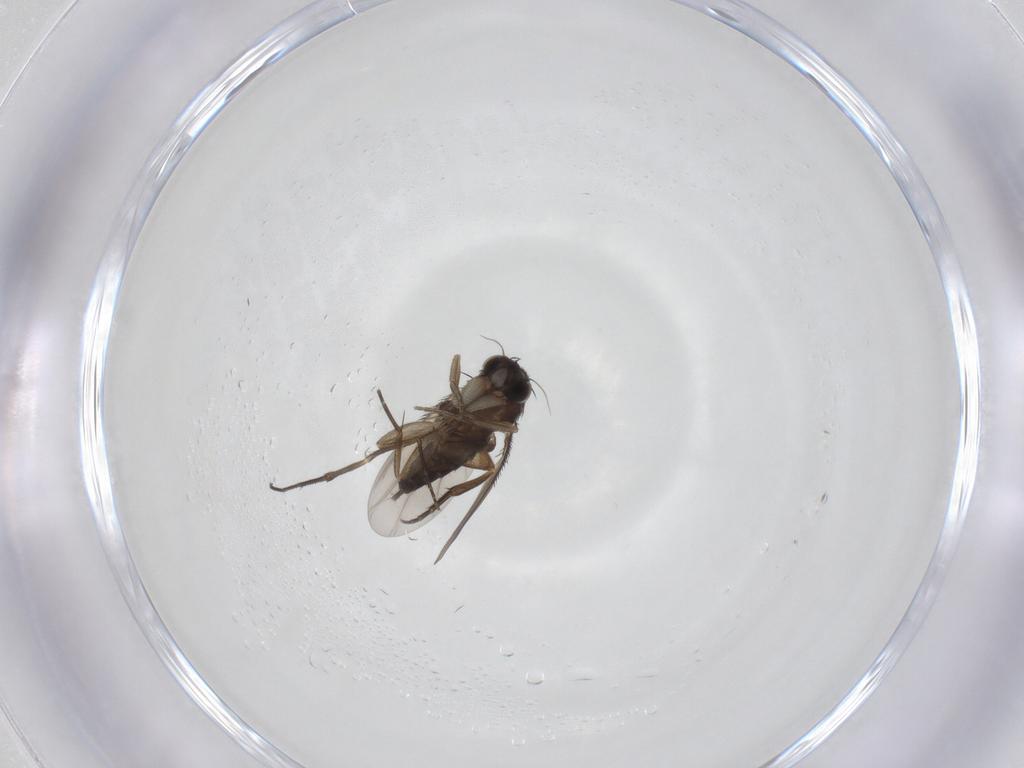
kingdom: Animalia
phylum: Arthropoda
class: Insecta
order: Diptera
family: Phoridae
